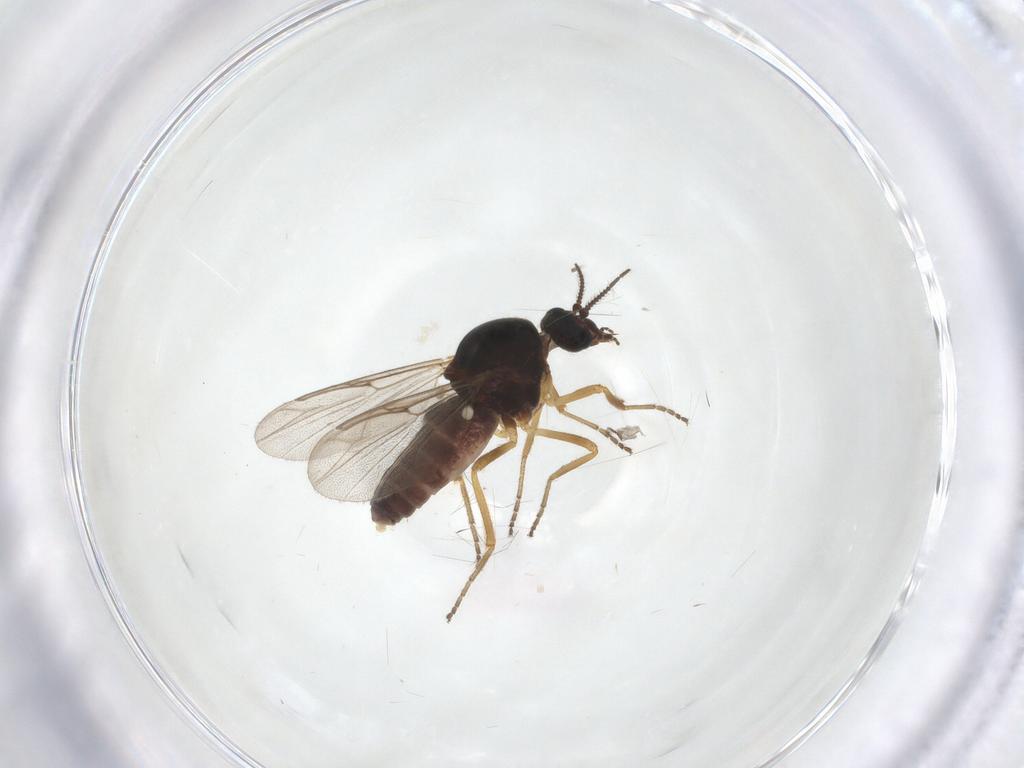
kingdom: Animalia
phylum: Arthropoda
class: Insecta
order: Diptera
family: Ceratopogonidae
